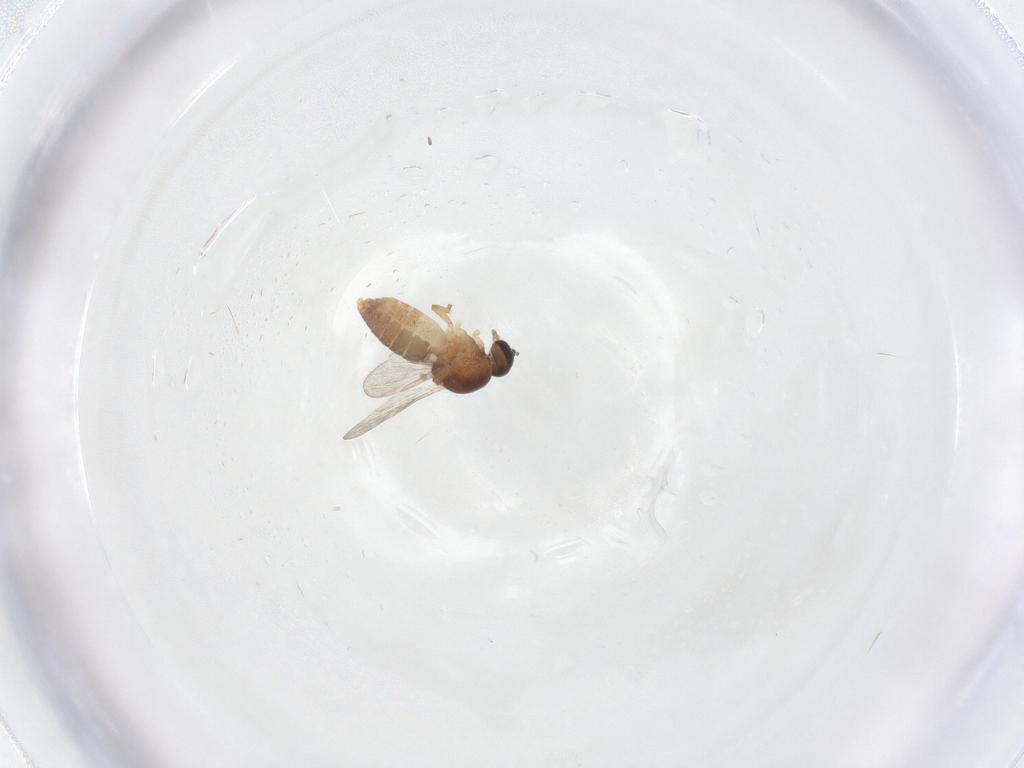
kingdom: Animalia
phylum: Arthropoda
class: Insecta
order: Diptera
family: Ceratopogonidae
